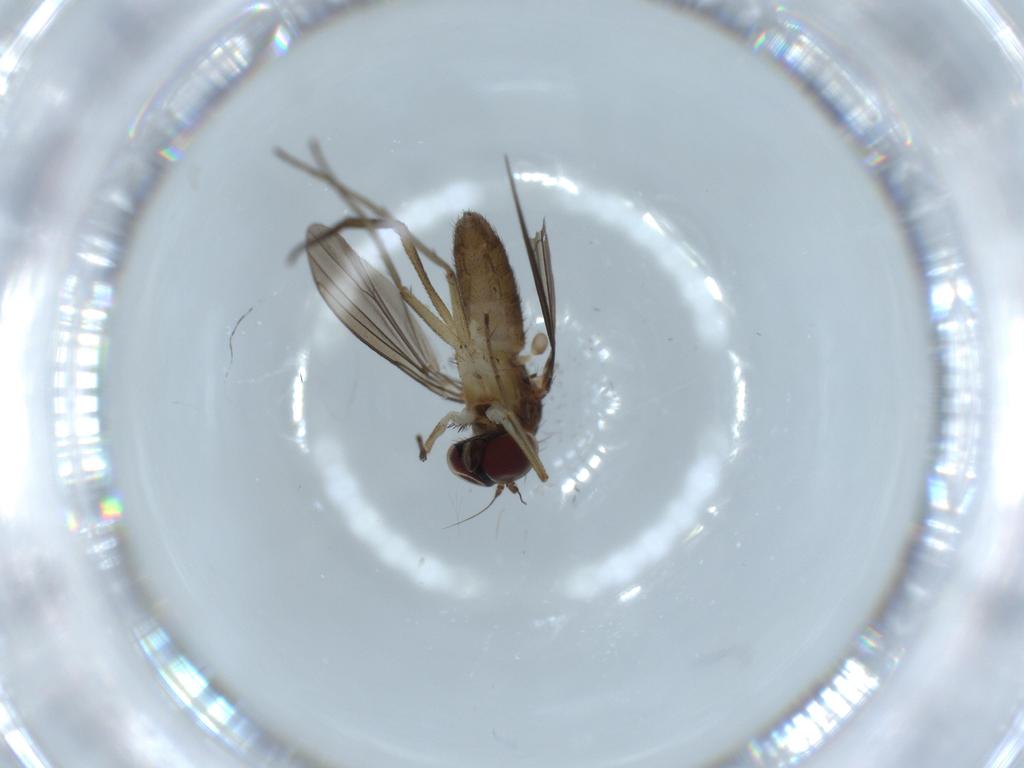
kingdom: Animalia
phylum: Arthropoda
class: Insecta
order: Diptera
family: Dolichopodidae
